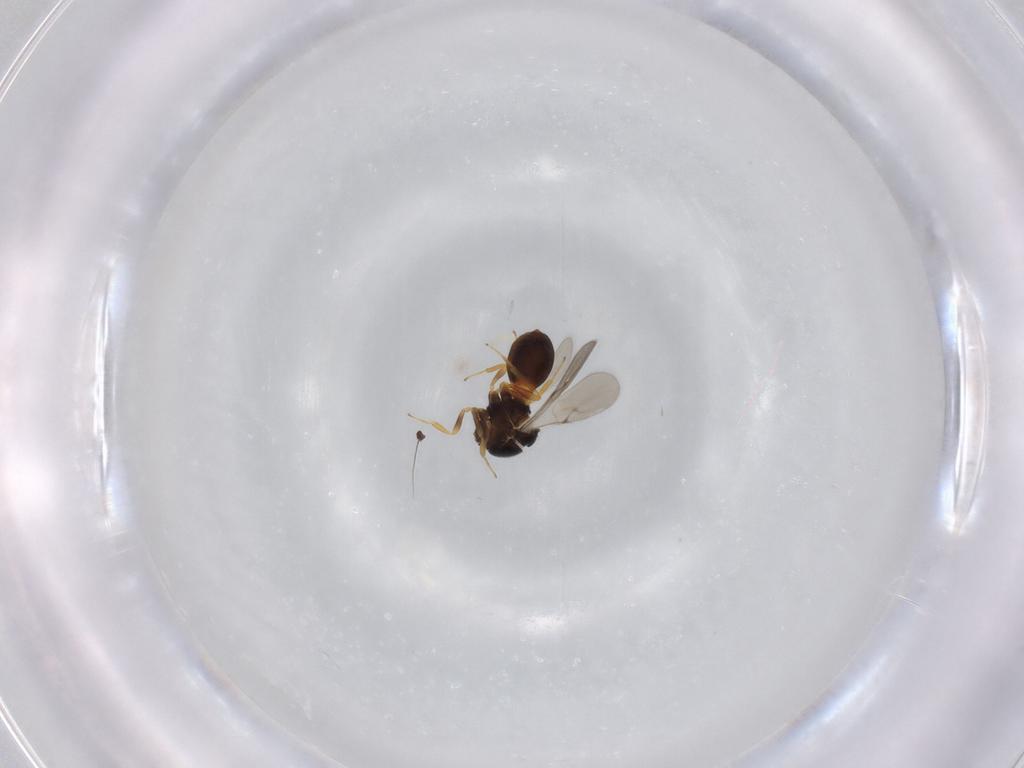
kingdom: Animalia
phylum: Arthropoda
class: Insecta
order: Hymenoptera
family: Scelionidae
